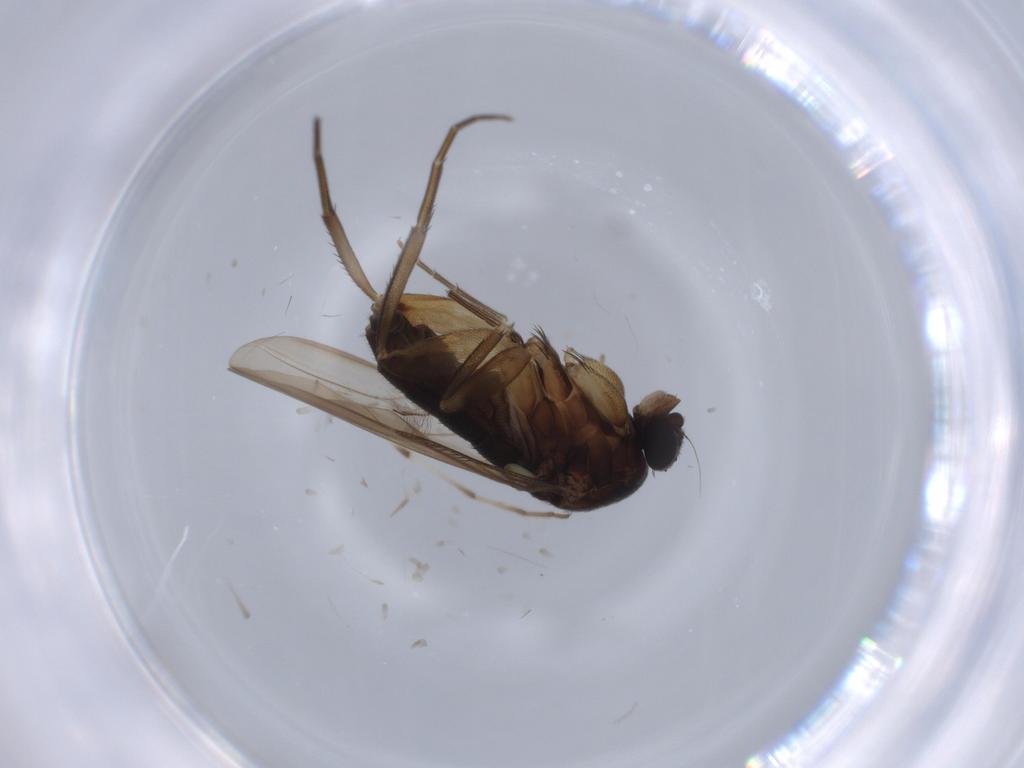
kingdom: Animalia
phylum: Arthropoda
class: Insecta
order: Diptera
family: Phoridae
